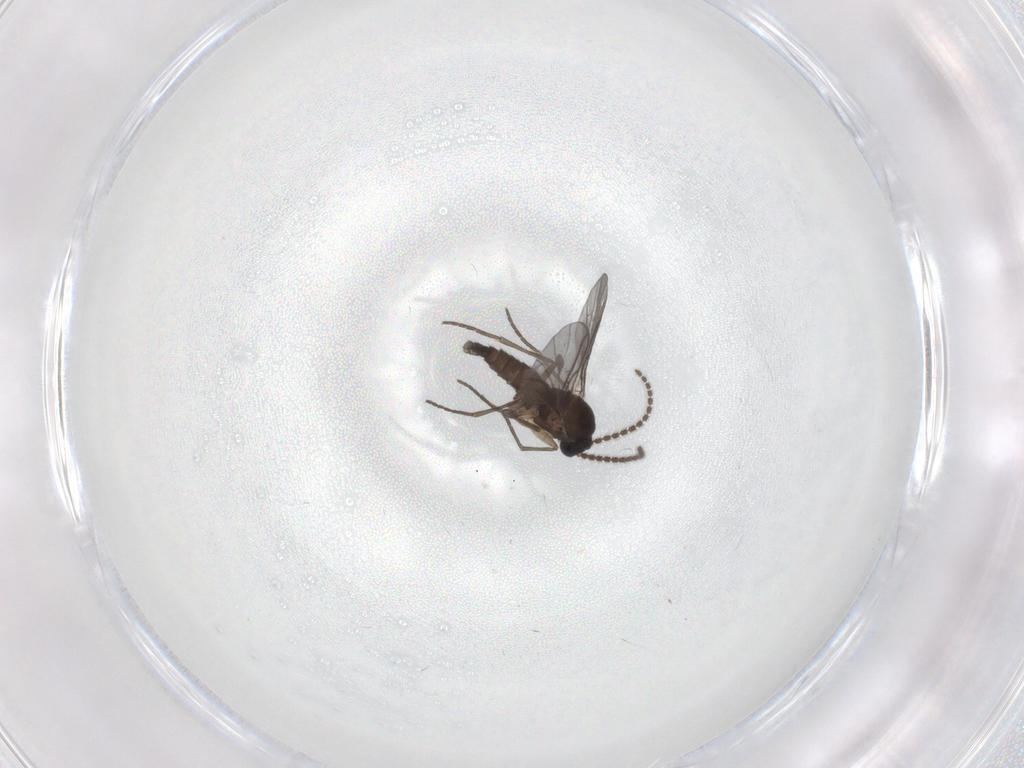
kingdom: Animalia
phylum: Arthropoda
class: Insecta
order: Diptera
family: Sciaridae
